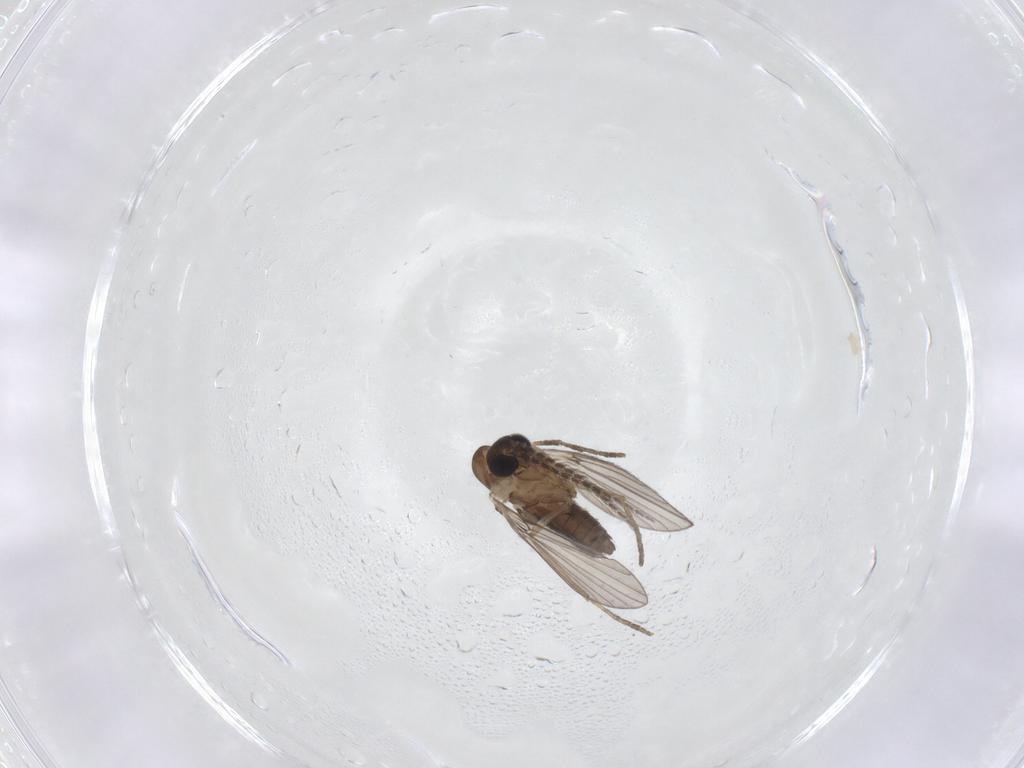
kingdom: Animalia
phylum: Arthropoda
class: Insecta
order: Diptera
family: Psychodidae
